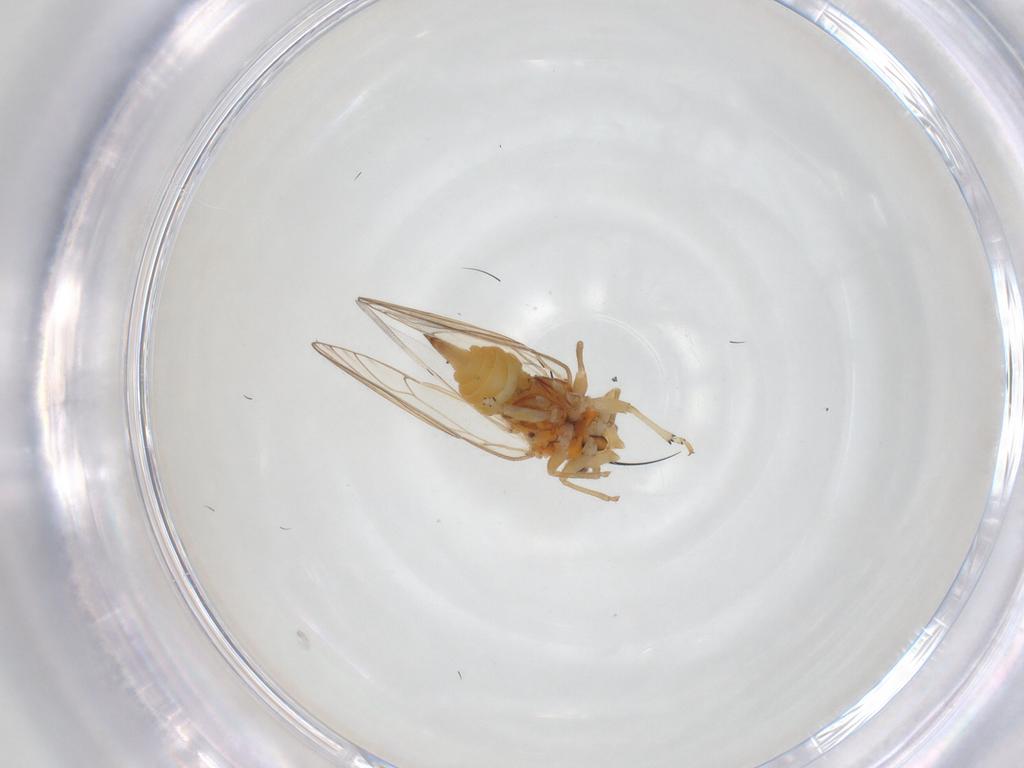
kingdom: Animalia
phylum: Arthropoda
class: Insecta
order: Hemiptera
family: Cicadellidae
